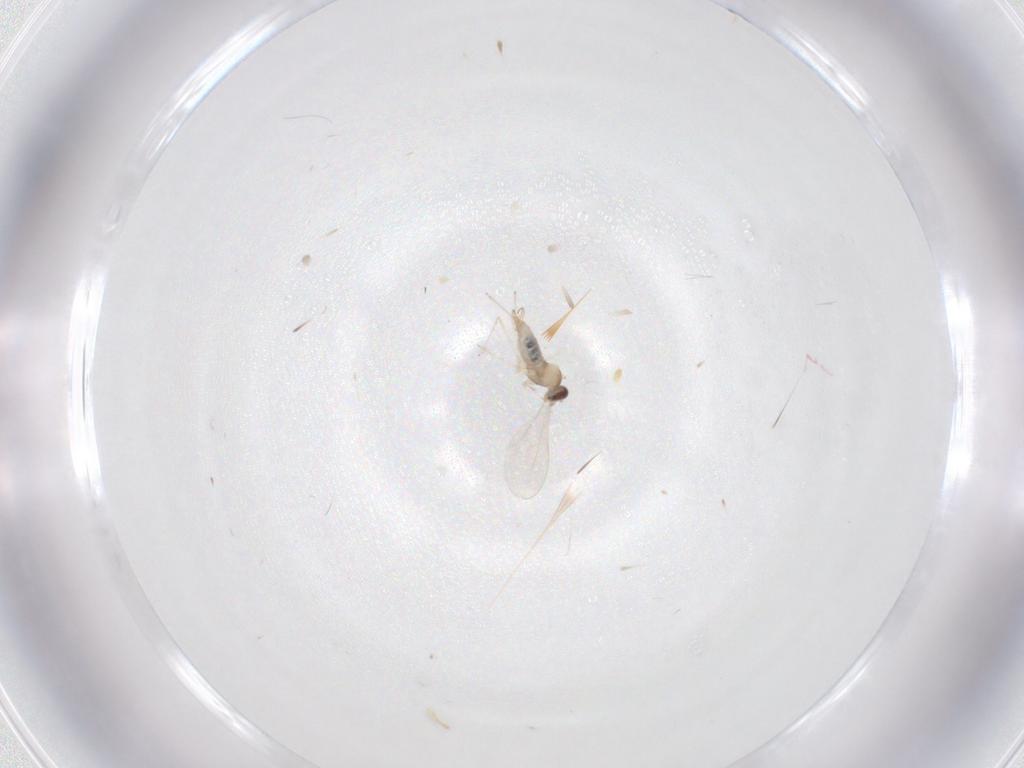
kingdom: Animalia
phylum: Arthropoda
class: Insecta
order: Diptera
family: Cecidomyiidae
